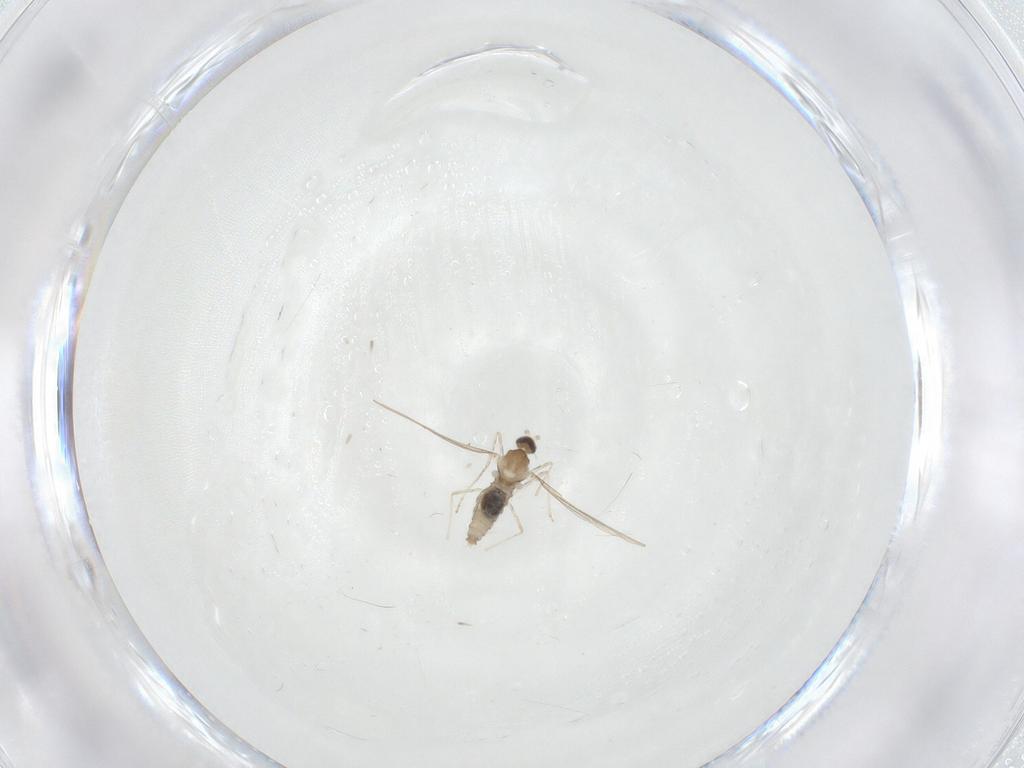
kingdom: Animalia
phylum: Arthropoda
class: Insecta
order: Diptera
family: Cecidomyiidae
